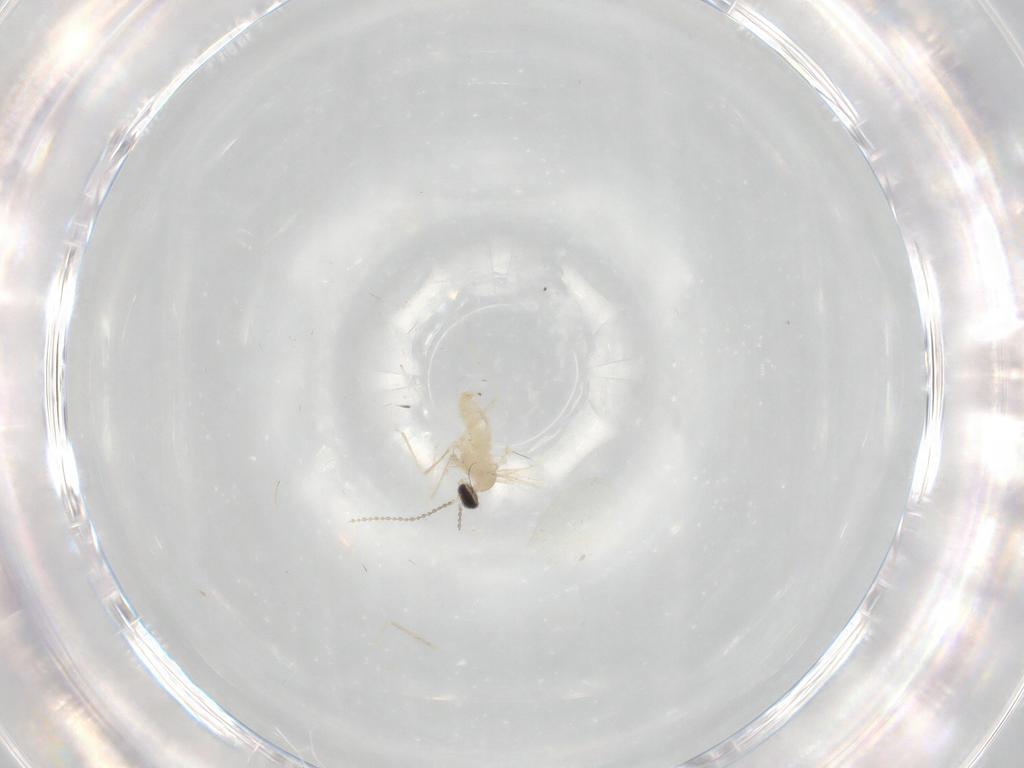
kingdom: Animalia
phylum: Arthropoda
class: Insecta
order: Diptera
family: Cecidomyiidae
